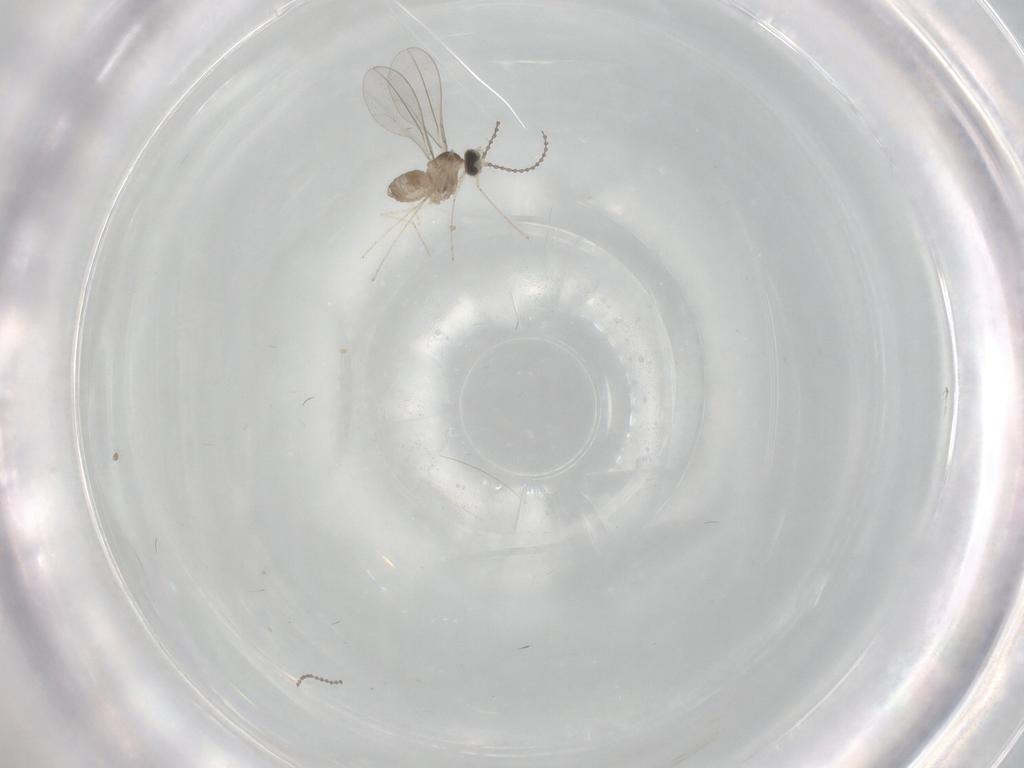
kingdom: Animalia
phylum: Arthropoda
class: Insecta
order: Diptera
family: Cecidomyiidae
